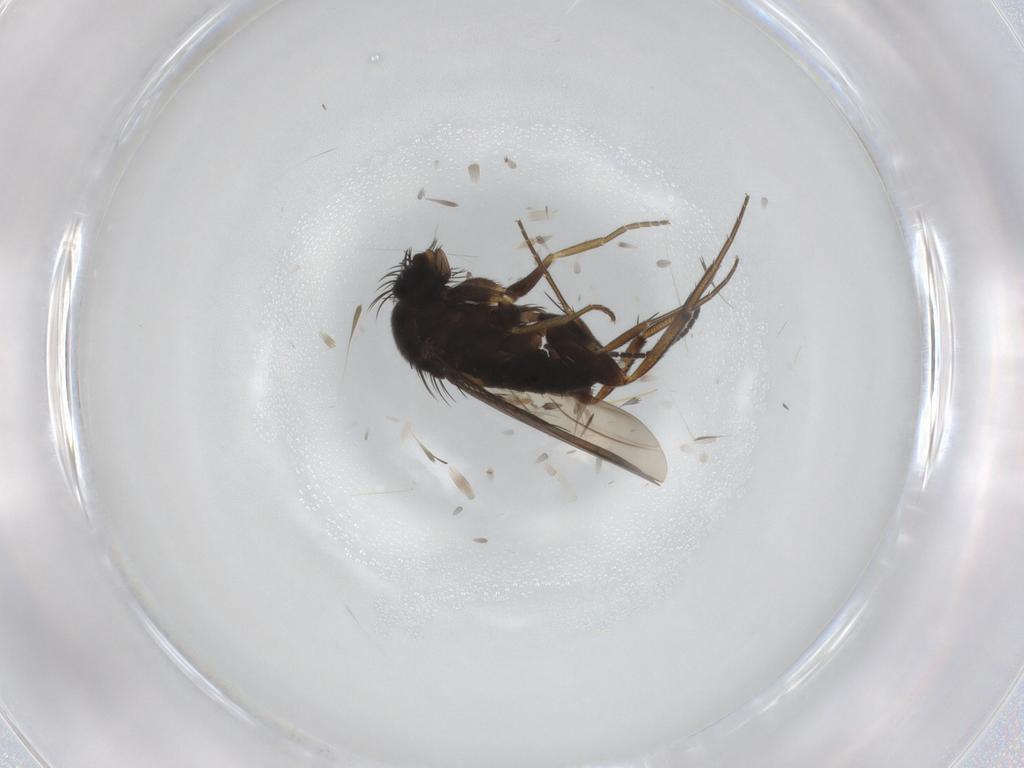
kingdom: Animalia
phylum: Arthropoda
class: Insecta
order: Diptera
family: Phoridae
